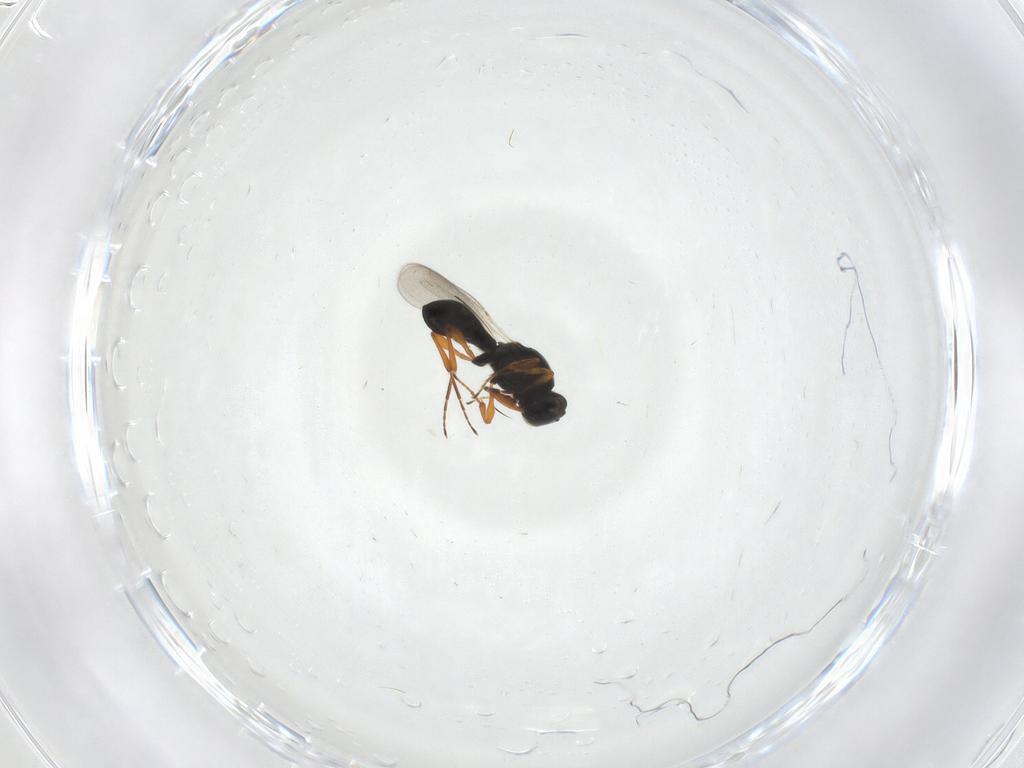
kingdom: Animalia
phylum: Arthropoda
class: Insecta
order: Hymenoptera
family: Platygastridae
